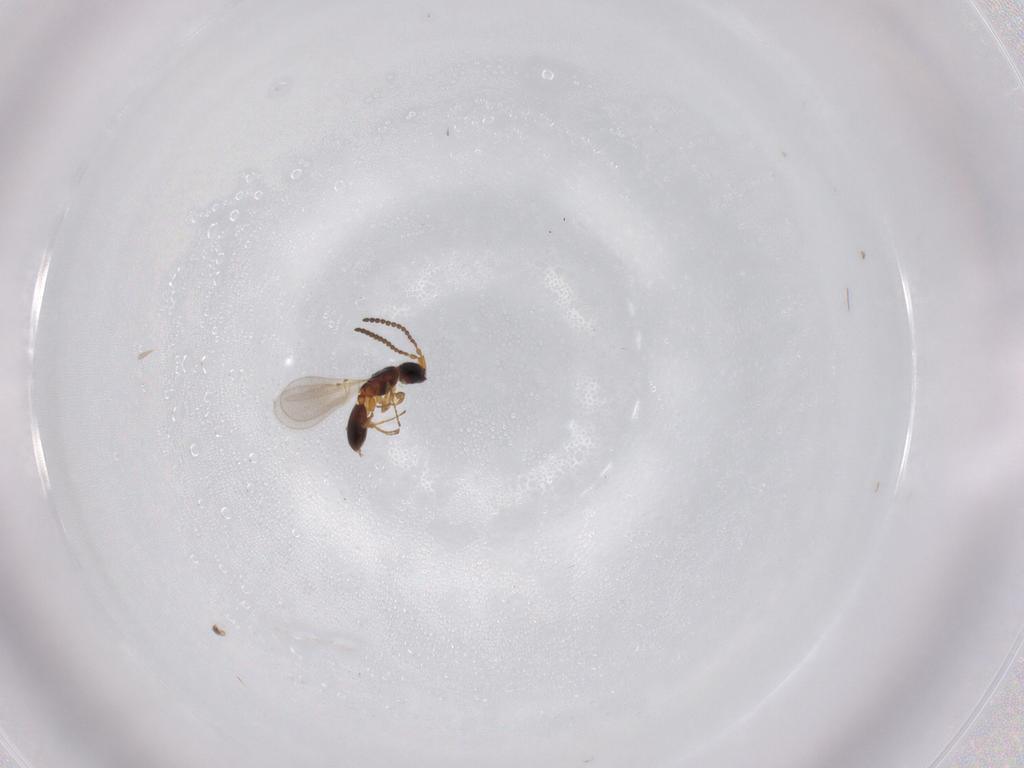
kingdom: Animalia
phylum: Arthropoda
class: Insecta
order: Hymenoptera
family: Diapriidae
